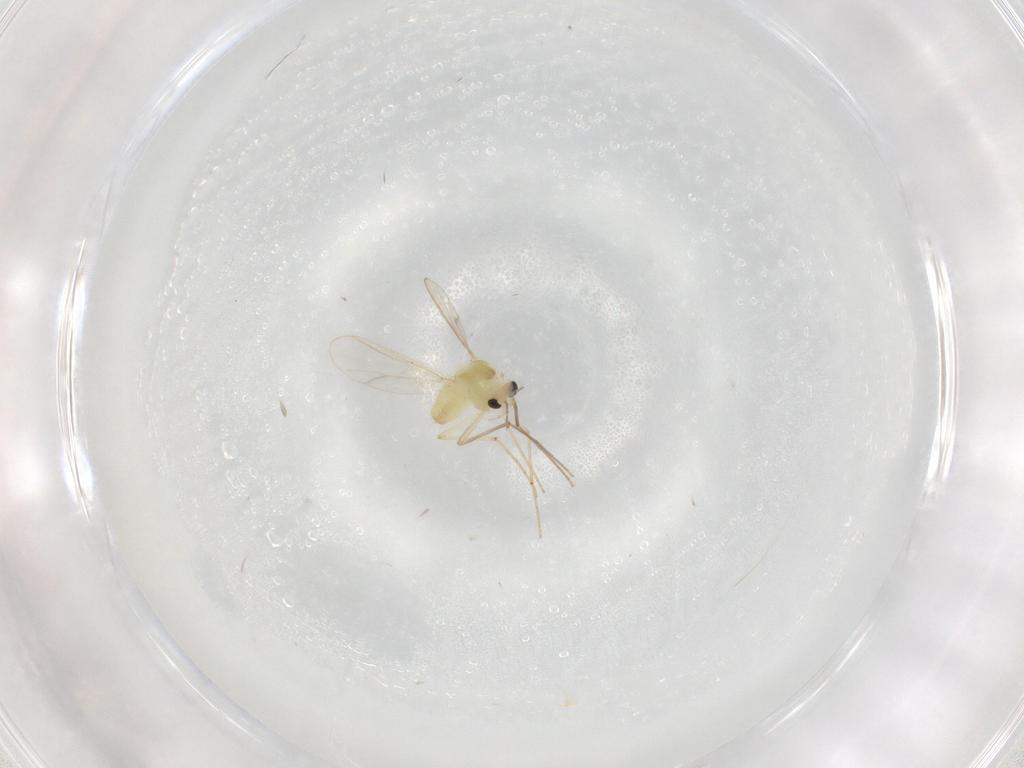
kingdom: Animalia
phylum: Arthropoda
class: Insecta
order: Diptera
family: Chironomidae
